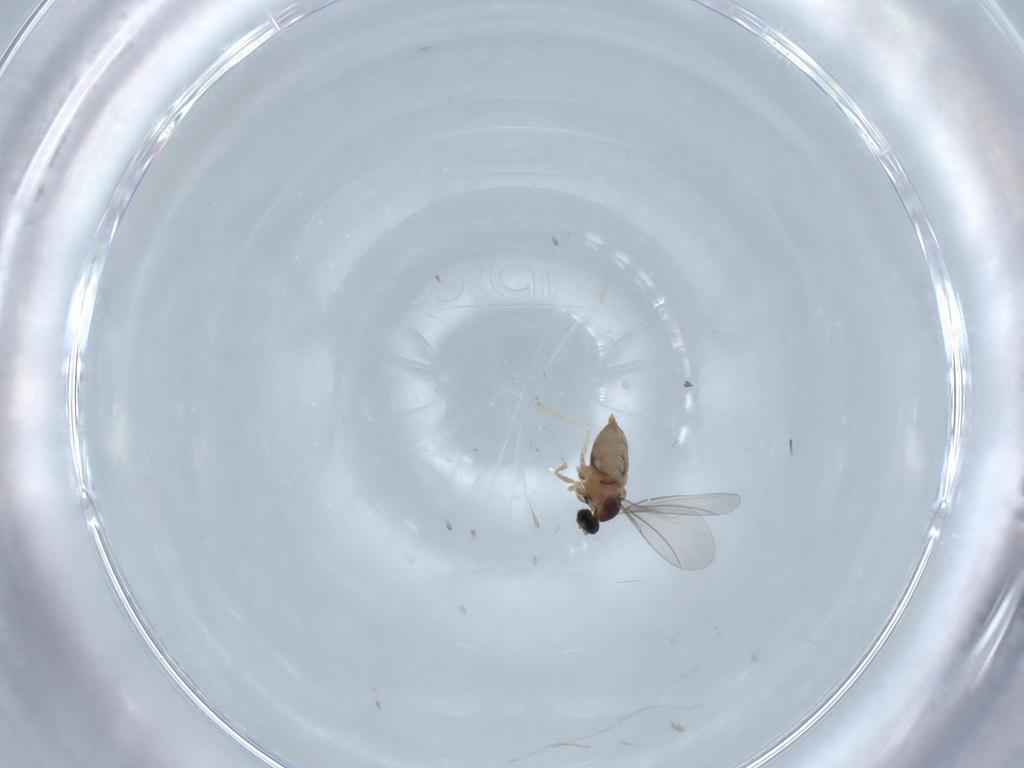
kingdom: Animalia
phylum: Arthropoda
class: Insecta
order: Diptera
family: Cecidomyiidae
